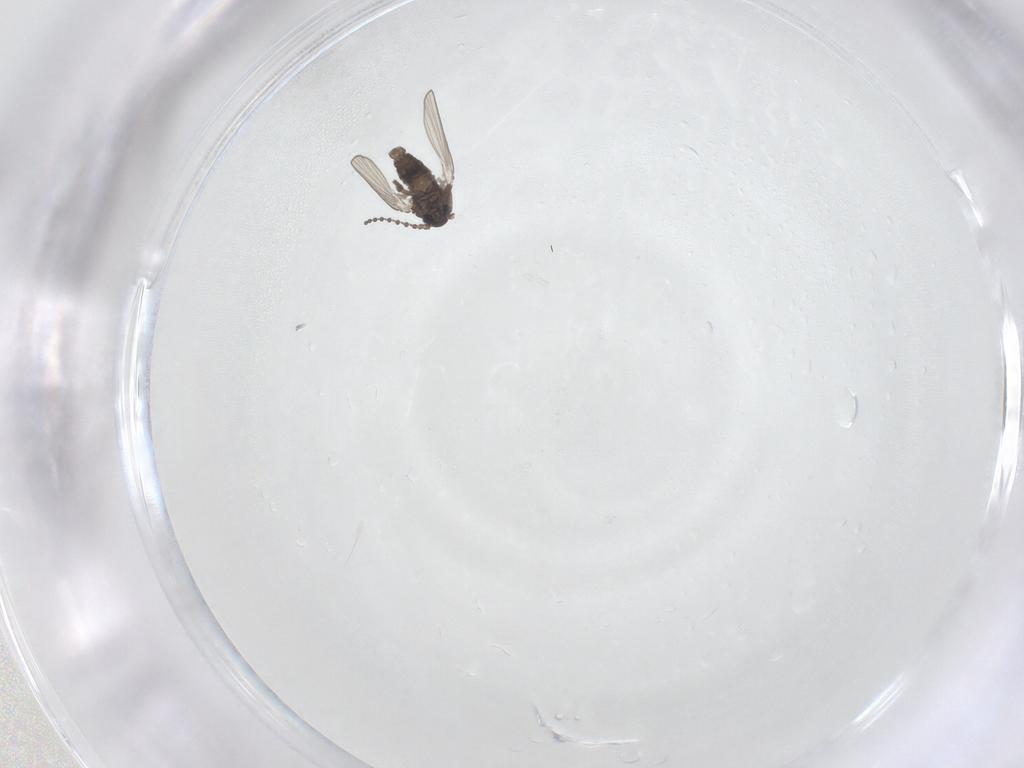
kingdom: Animalia
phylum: Arthropoda
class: Insecta
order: Diptera
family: Psychodidae
